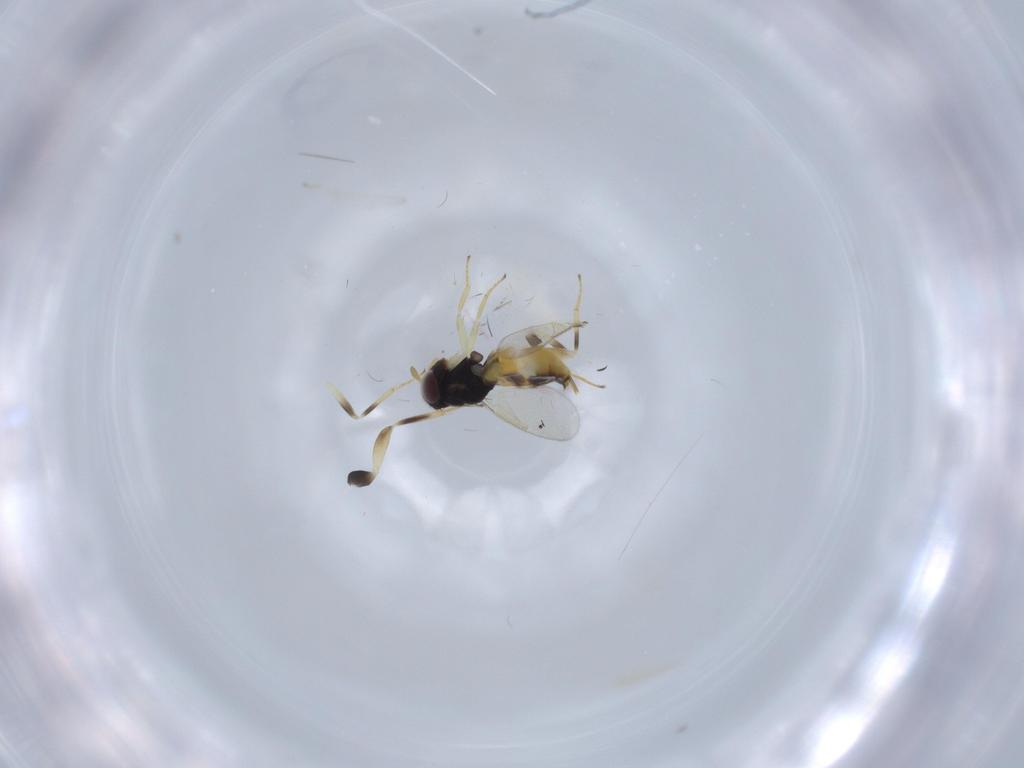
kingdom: Animalia
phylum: Arthropoda
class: Insecta
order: Hymenoptera
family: Aphelinidae
